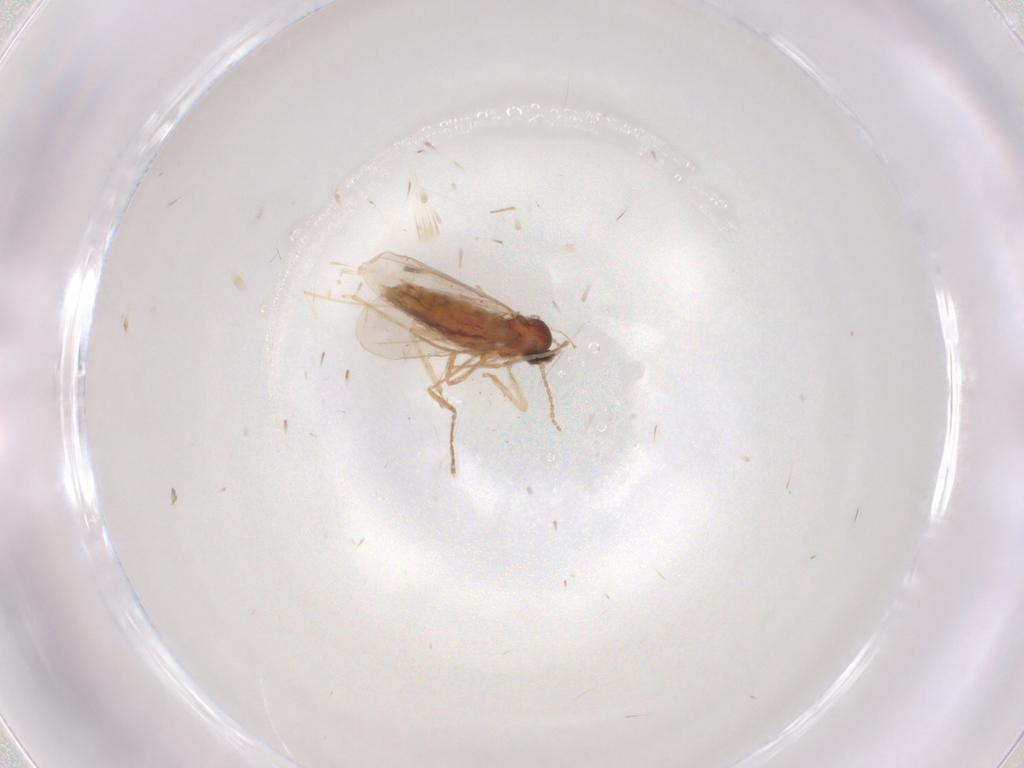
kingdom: Animalia
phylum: Arthropoda
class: Insecta
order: Diptera
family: Cecidomyiidae
